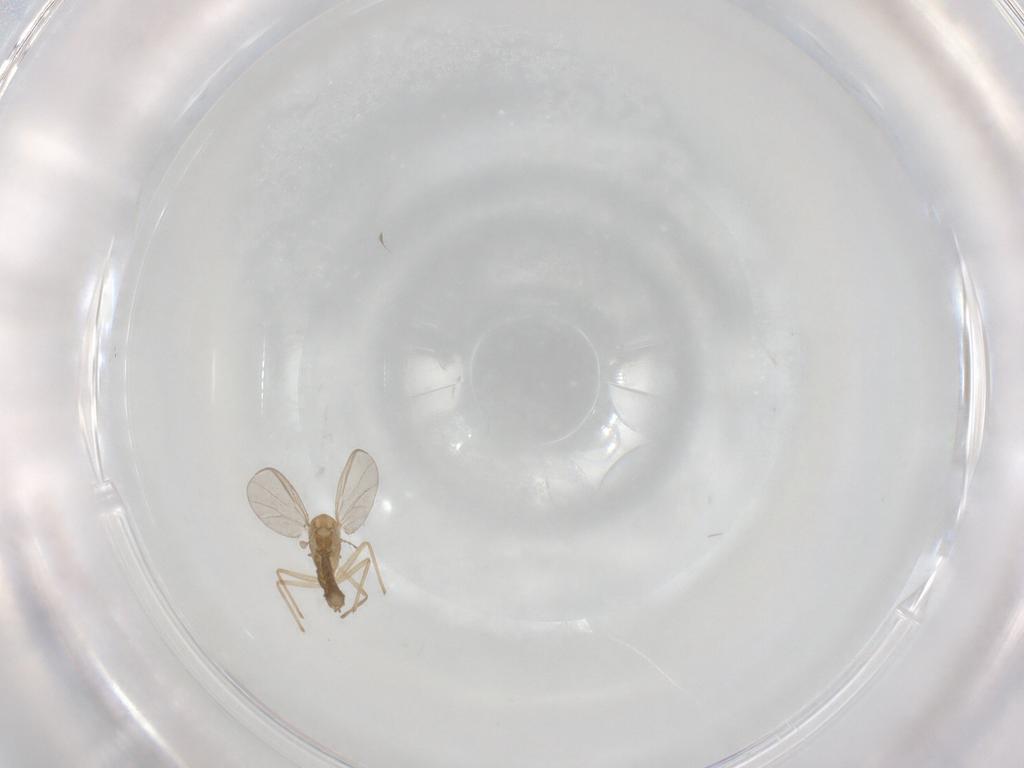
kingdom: Animalia
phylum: Arthropoda
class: Insecta
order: Diptera
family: Chironomidae
